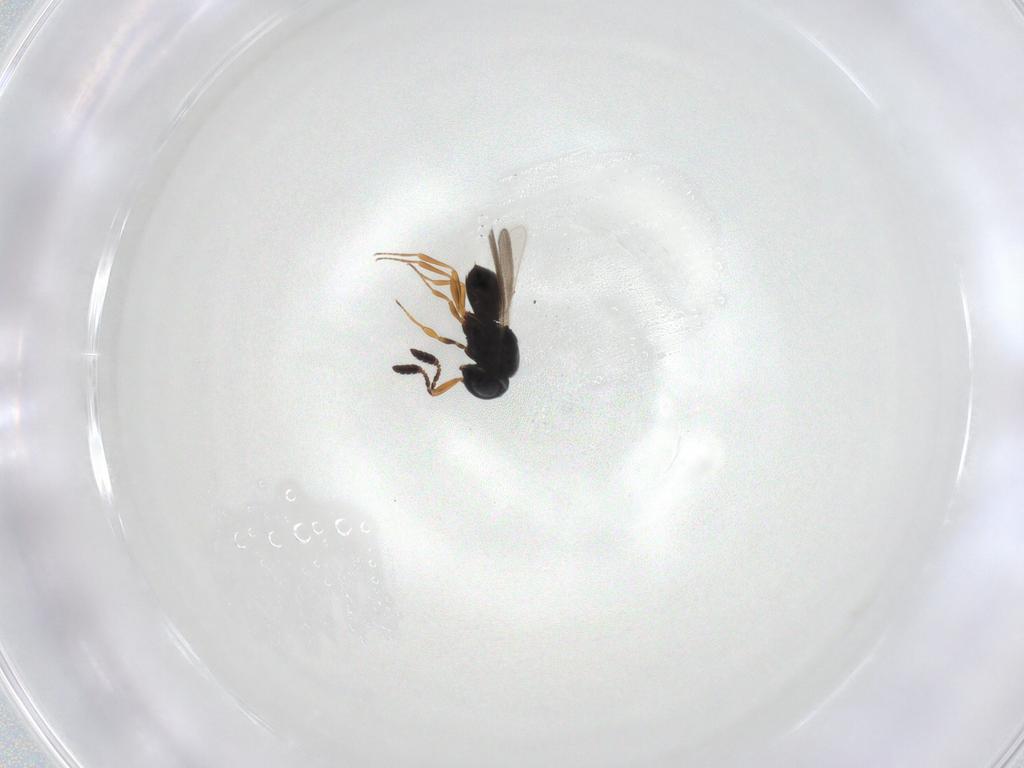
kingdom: Animalia
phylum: Arthropoda
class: Insecta
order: Hymenoptera
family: Scelionidae
